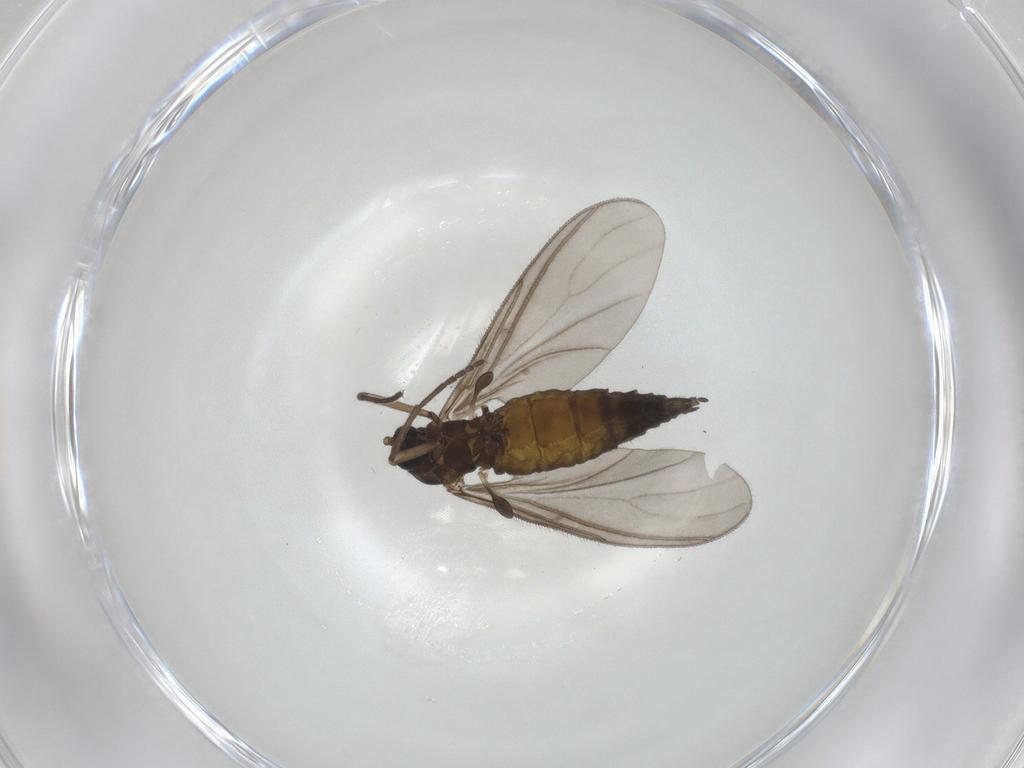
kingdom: Animalia
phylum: Arthropoda
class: Insecta
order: Diptera
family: Sciaridae
